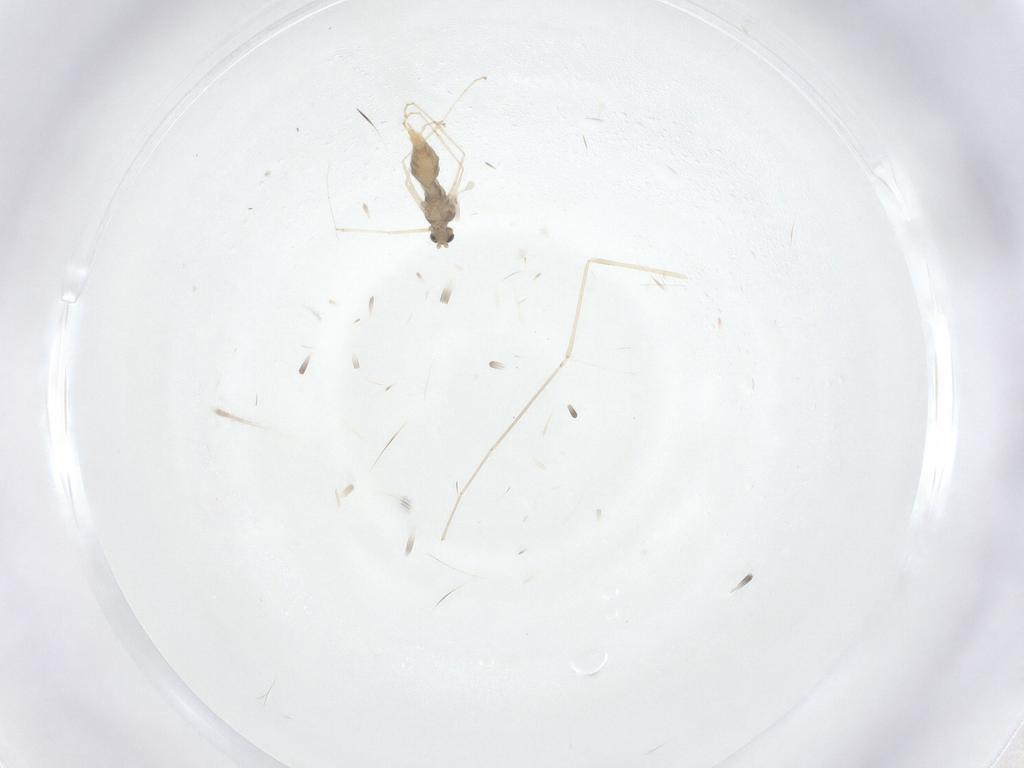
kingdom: Animalia
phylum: Arthropoda
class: Insecta
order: Diptera
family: Cecidomyiidae
